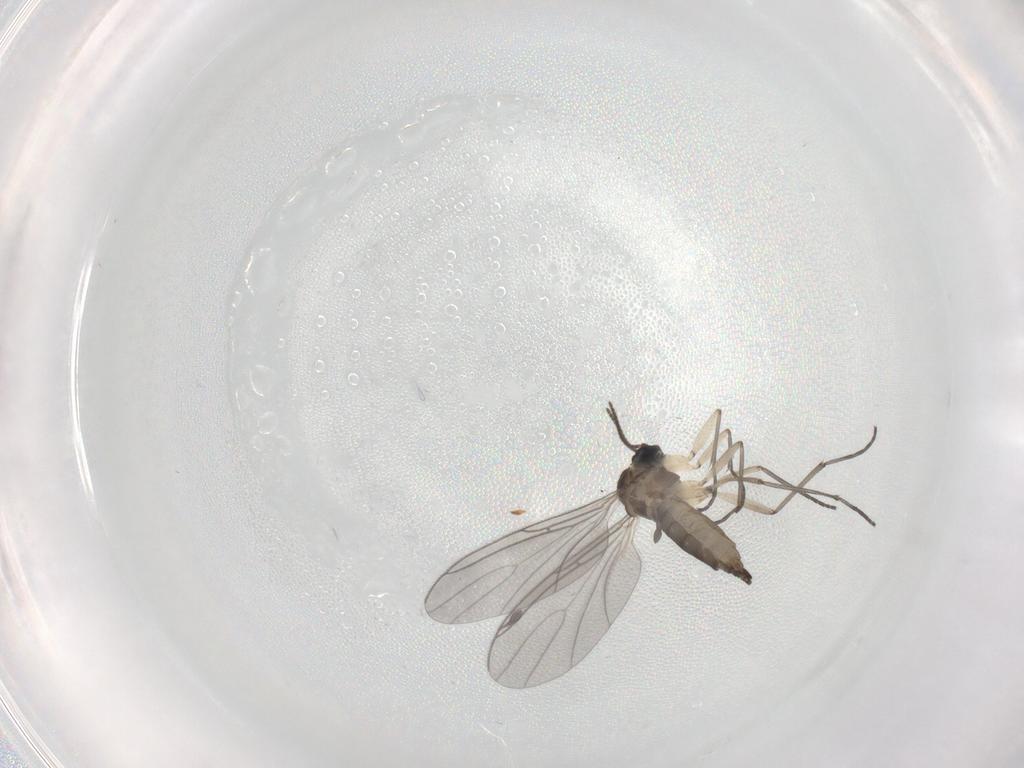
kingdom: Animalia
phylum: Arthropoda
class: Insecta
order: Diptera
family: Sciaridae
